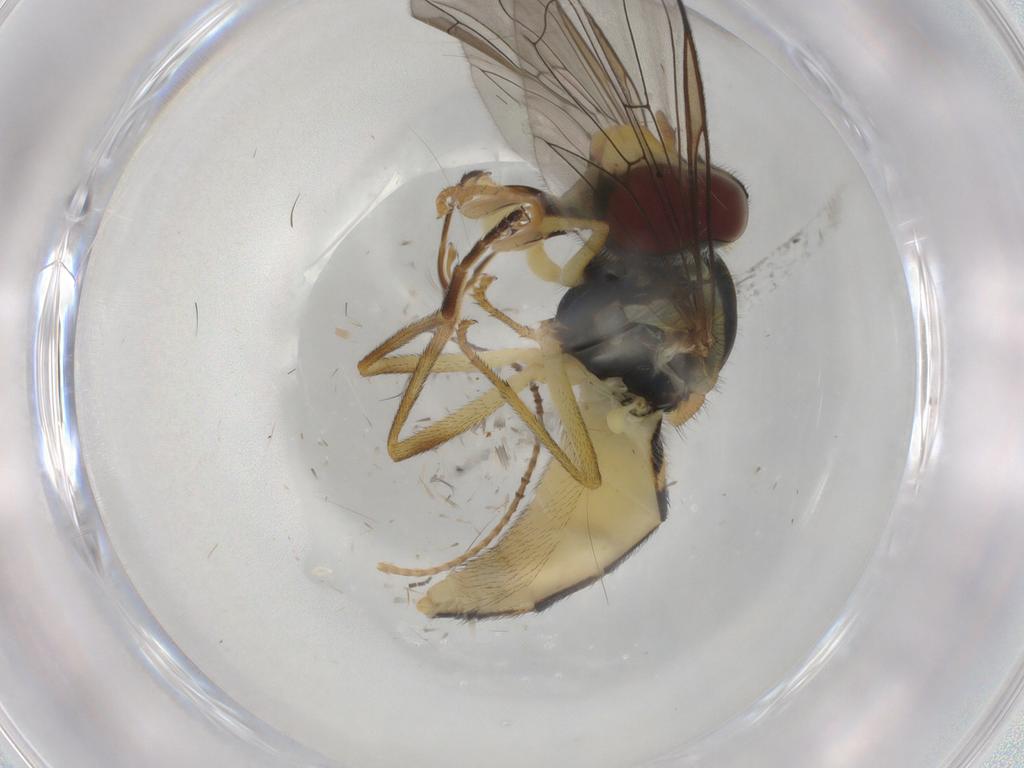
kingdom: Animalia
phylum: Arthropoda
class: Insecta
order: Diptera
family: Syrphidae
